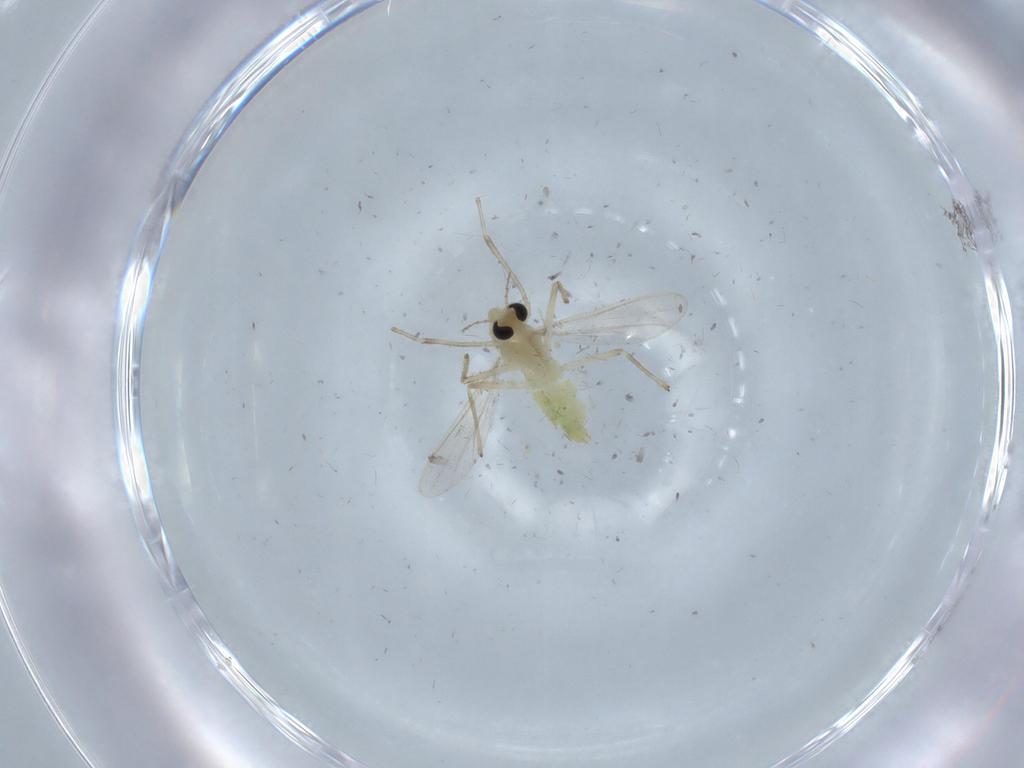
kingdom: Animalia
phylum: Arthropoda
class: Insecta
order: Diptera
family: Chironomidae
